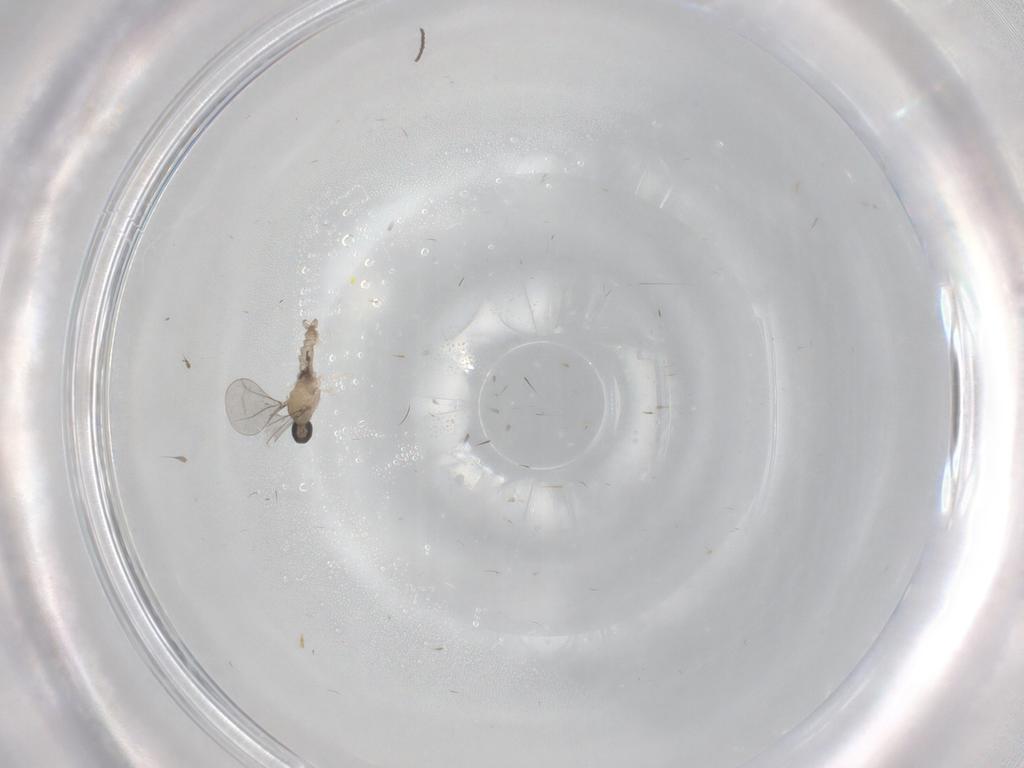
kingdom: Animalia
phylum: Arthropoda
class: Insecta
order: Diptera
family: Cecidomyiidae
